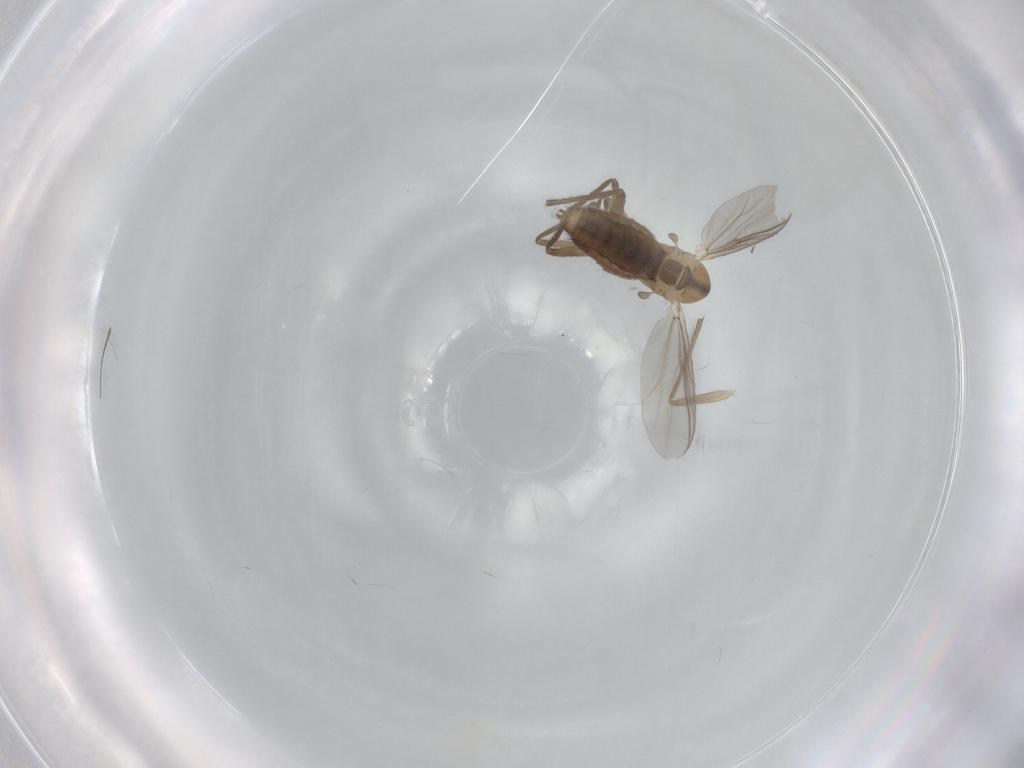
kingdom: Animalia
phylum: Arthropoda
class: Insecta
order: Diptera
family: Chironomidae
